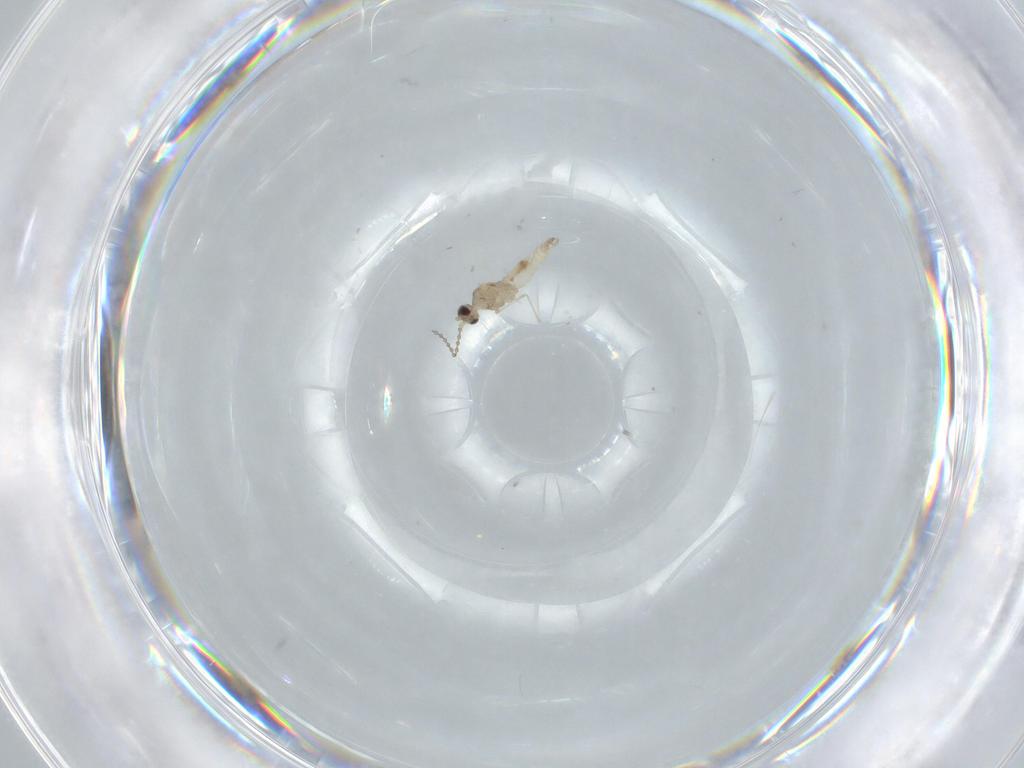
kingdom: Animalia
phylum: Arthropoda
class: Insecta
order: Diptera
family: Cecidomyiidae
